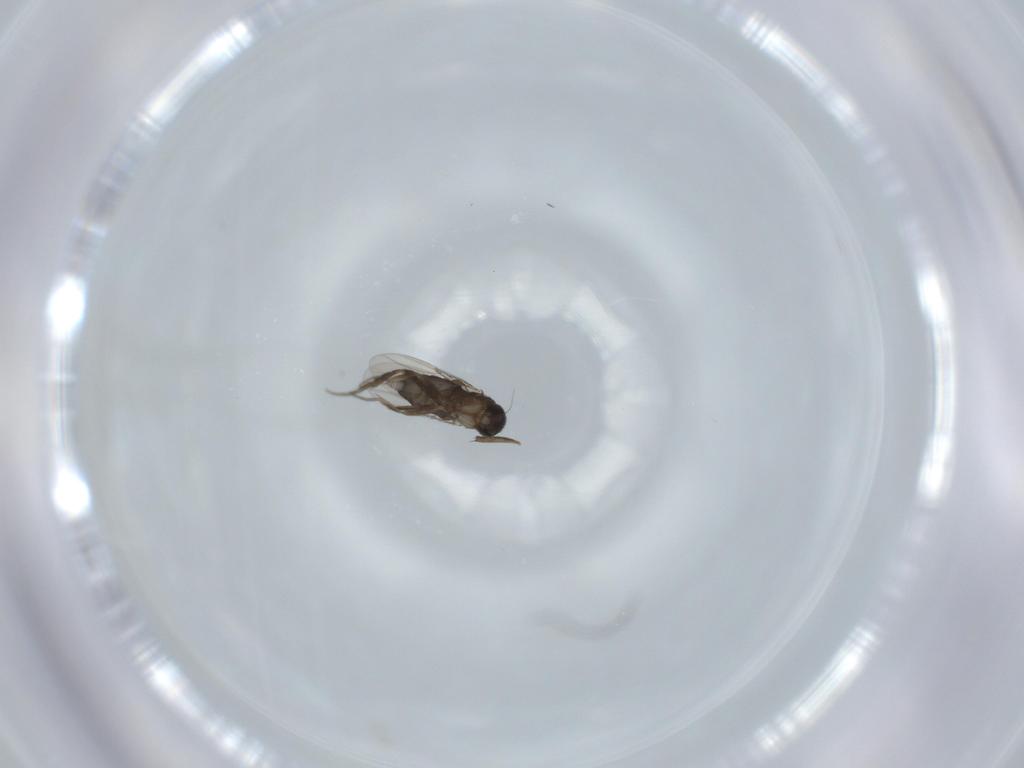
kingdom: Animalia
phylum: Arthropoda
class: Insecta
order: Diptera
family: Phoridae
